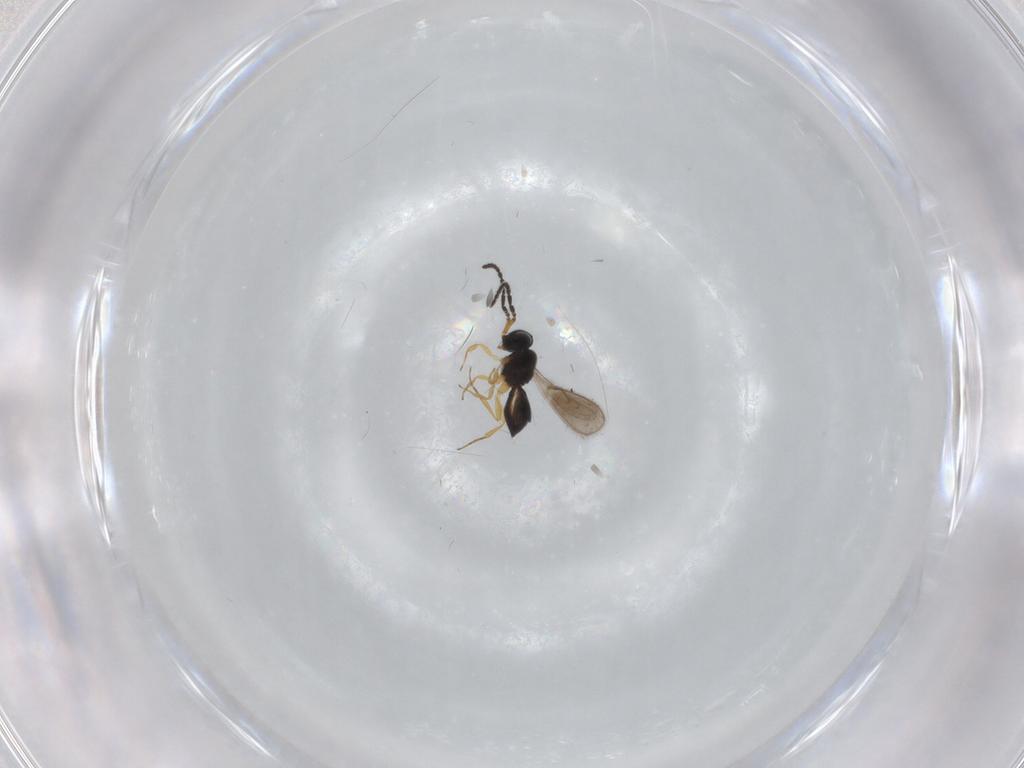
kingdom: Animalia
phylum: Arthropoda
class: Insecta
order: Hymenoptera
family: Scelionidae
